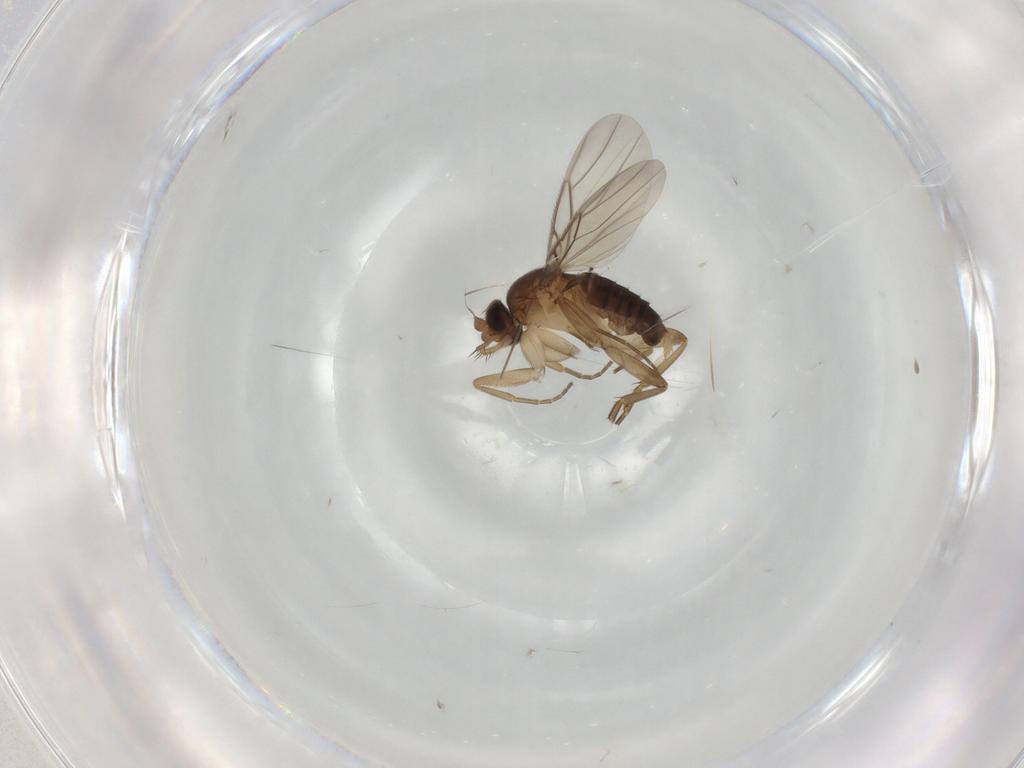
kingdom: Animalia
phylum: Arthropoda
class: Insecta
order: Diptera
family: Phoridae
